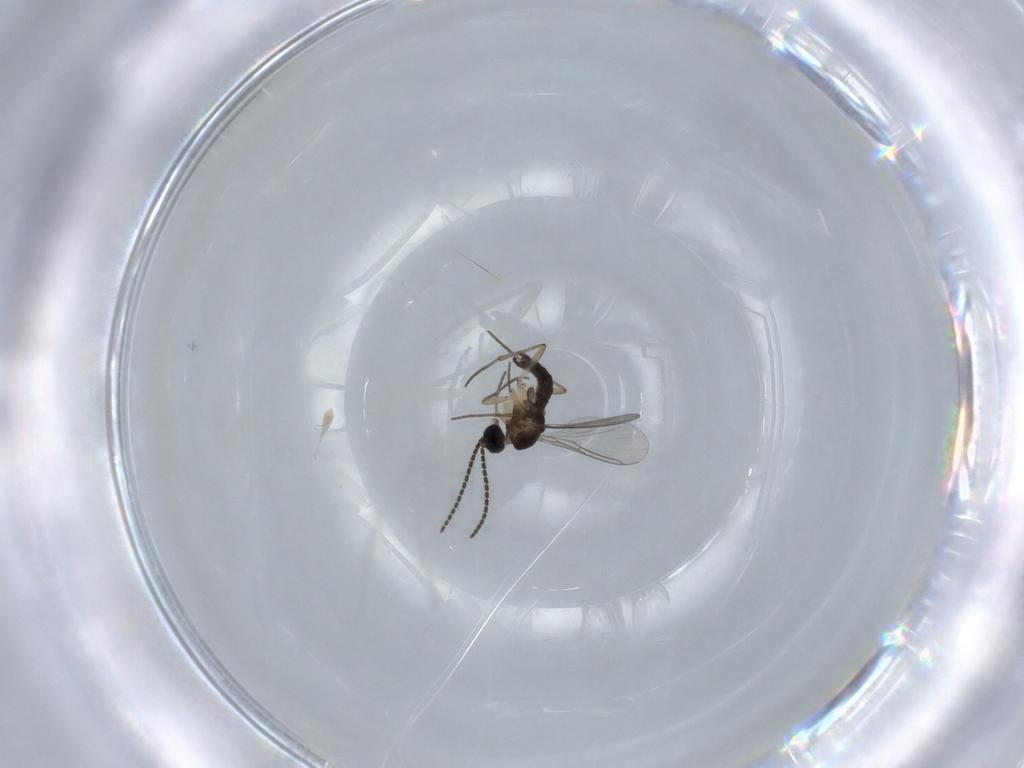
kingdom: Animalia
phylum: Arthropoda
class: Insecta
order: Diptera
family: Sciaridae
